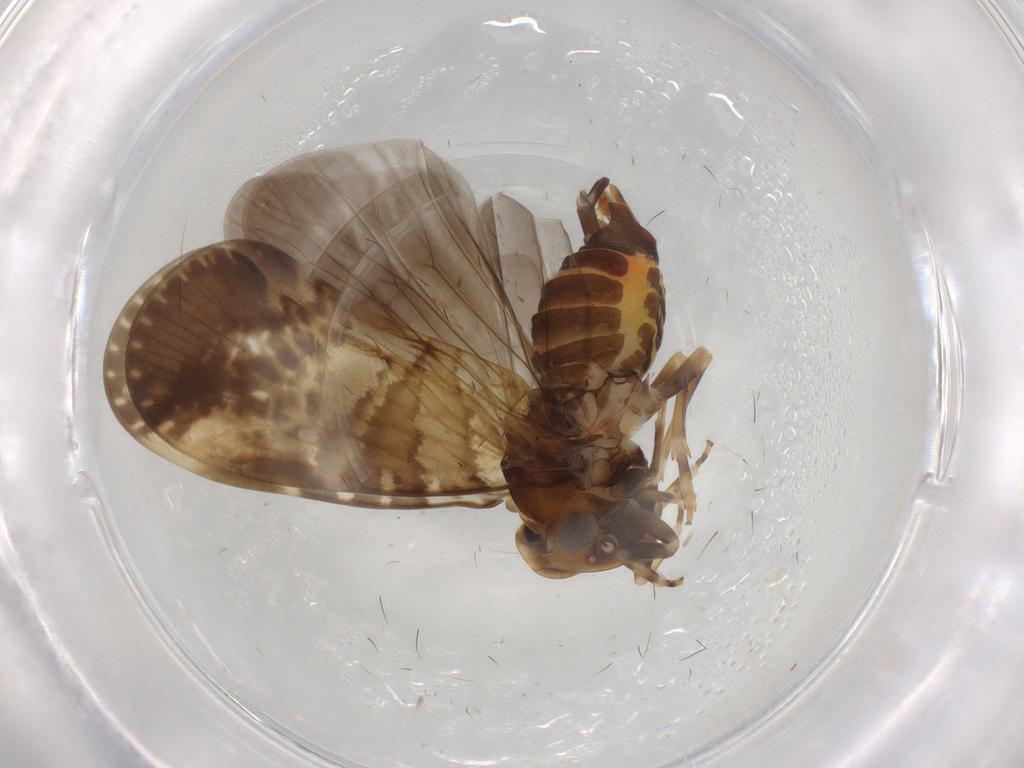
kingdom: Animalia
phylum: Arthropoda
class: Insecta
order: Hemiptera
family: Cixiidae
